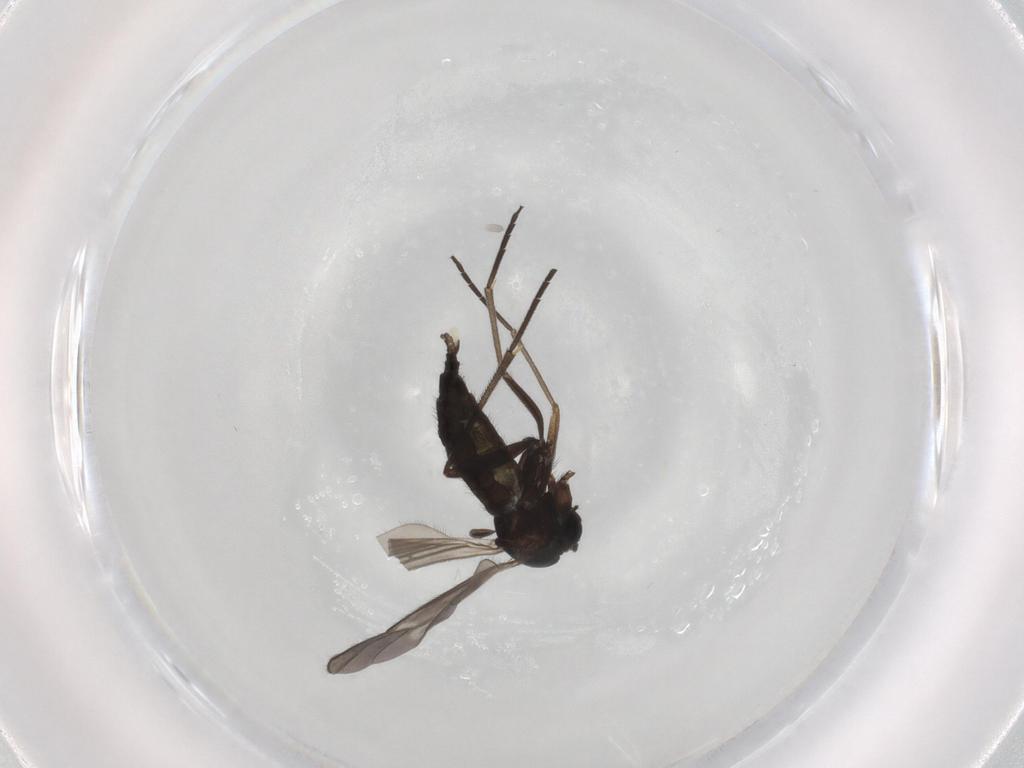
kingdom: Animalia
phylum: Arthropoda
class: Insecta
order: Diptera
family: Sciaridae
